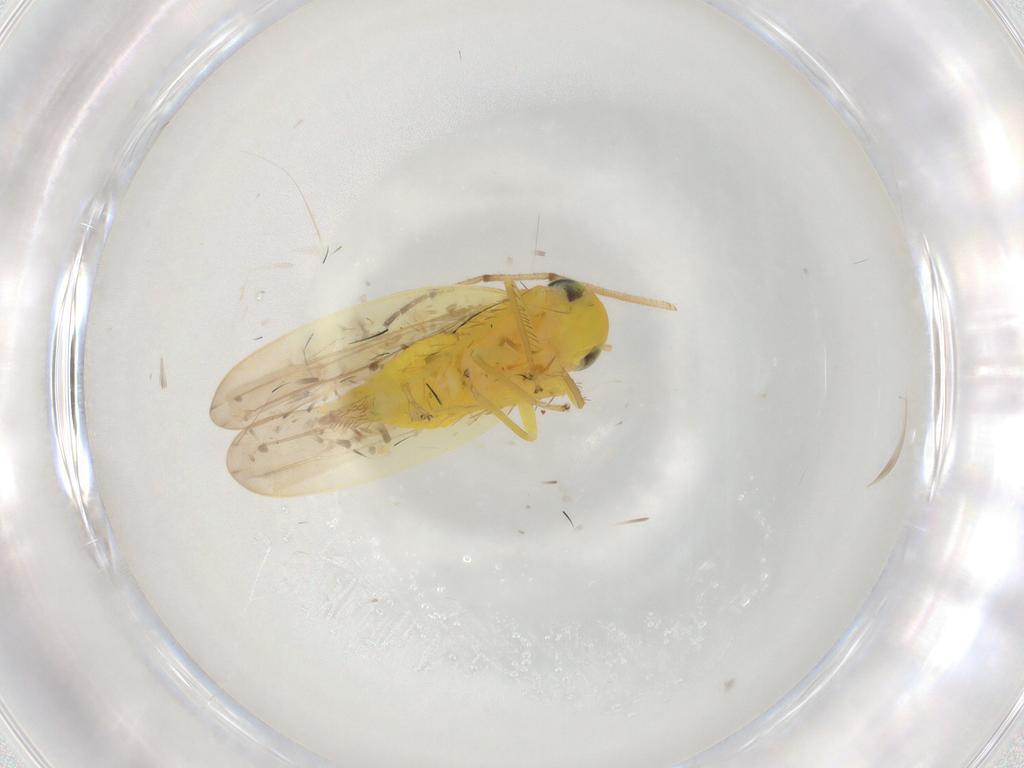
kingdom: Animalia
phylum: Arthropoda
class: Insecta
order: Hemiptera
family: Cicadellidae
